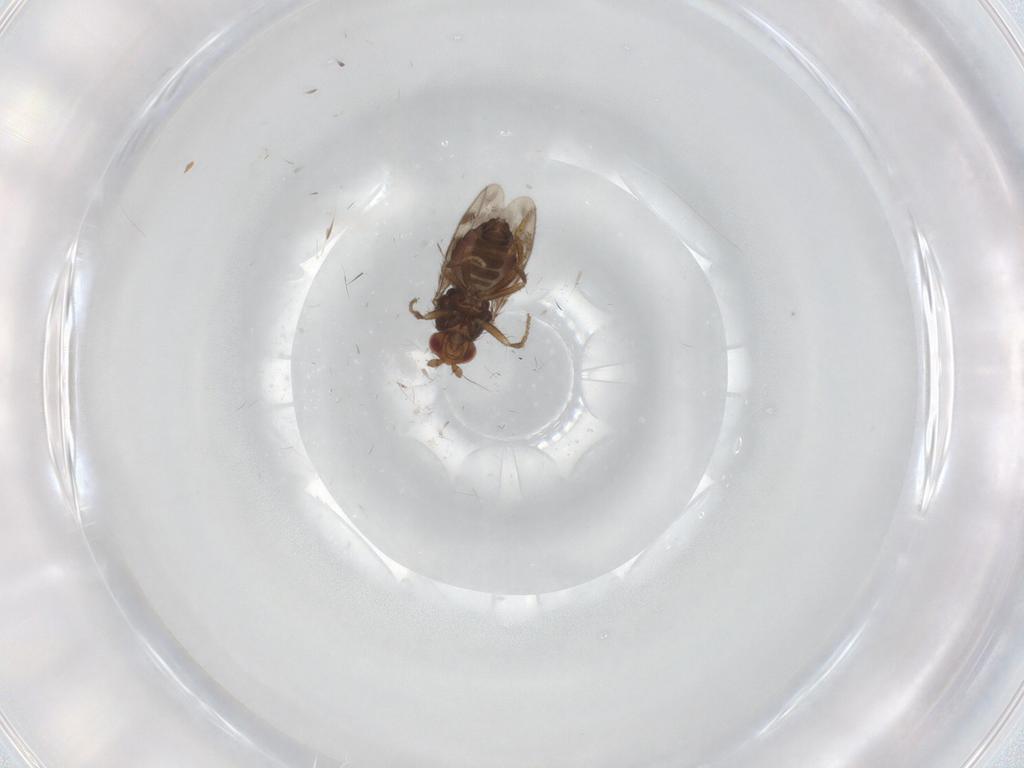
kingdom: Animalia
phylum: Arthropoda
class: Insecta
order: Diptera
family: Sphaeroceridae
